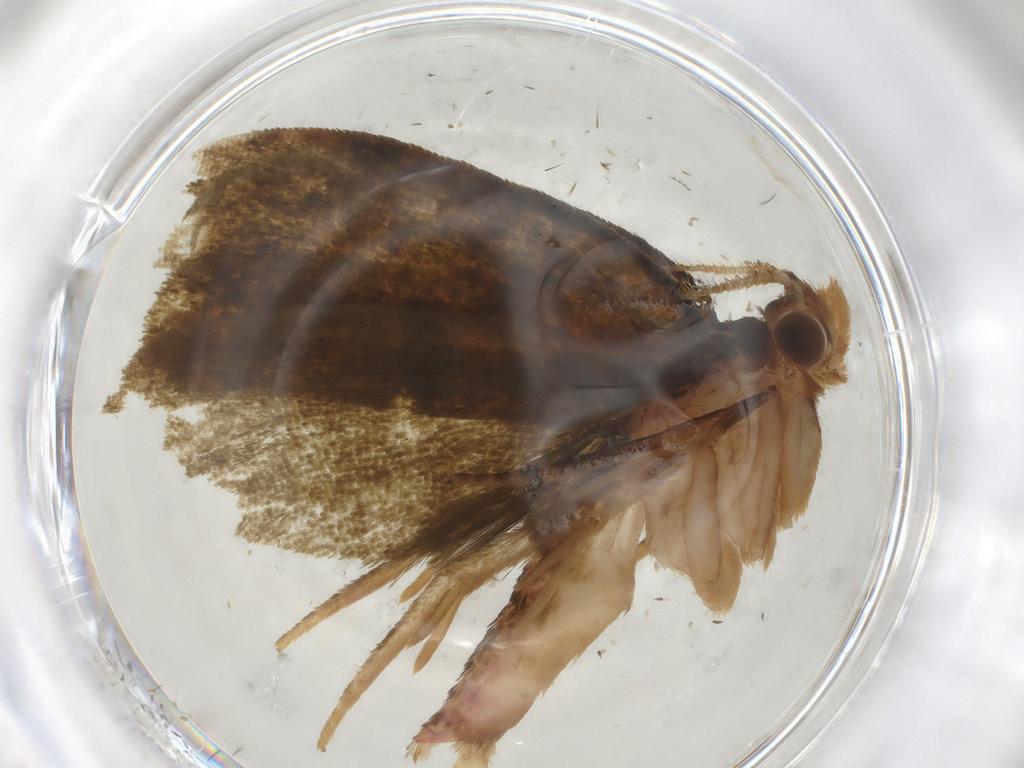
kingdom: Animalia
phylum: Arthropoda
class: Insecta
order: Lepidoptera
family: Geometridae
